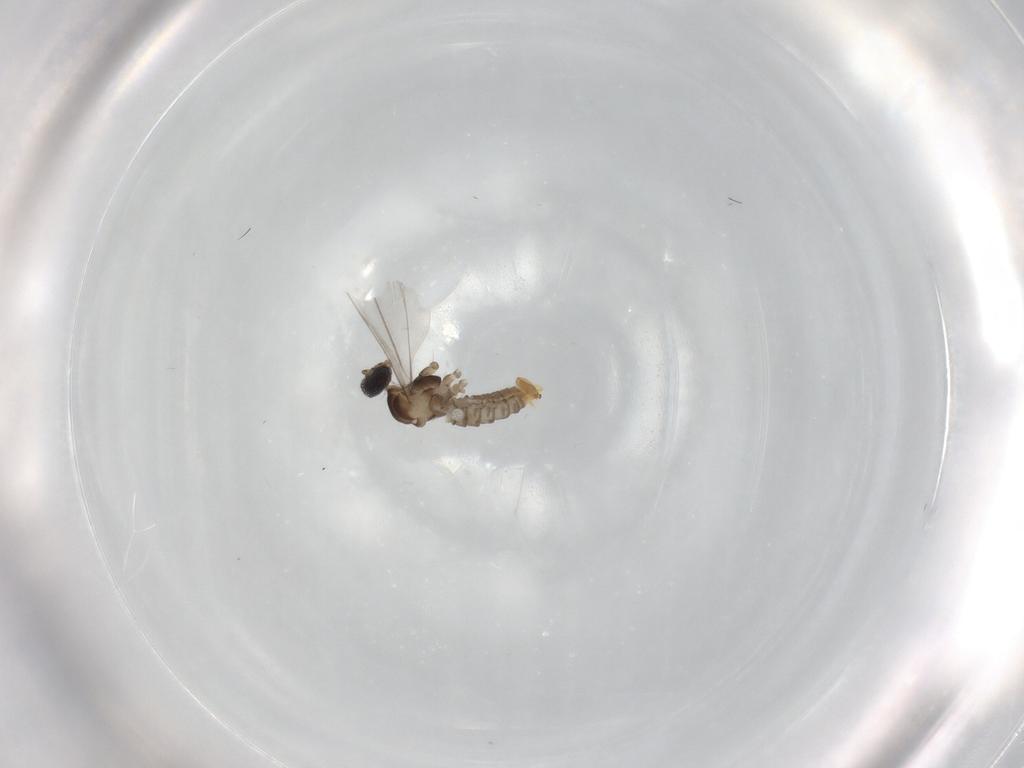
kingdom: Animalia
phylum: Arthropoda
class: Insecta
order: Diptera
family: Cecidomyiidae
